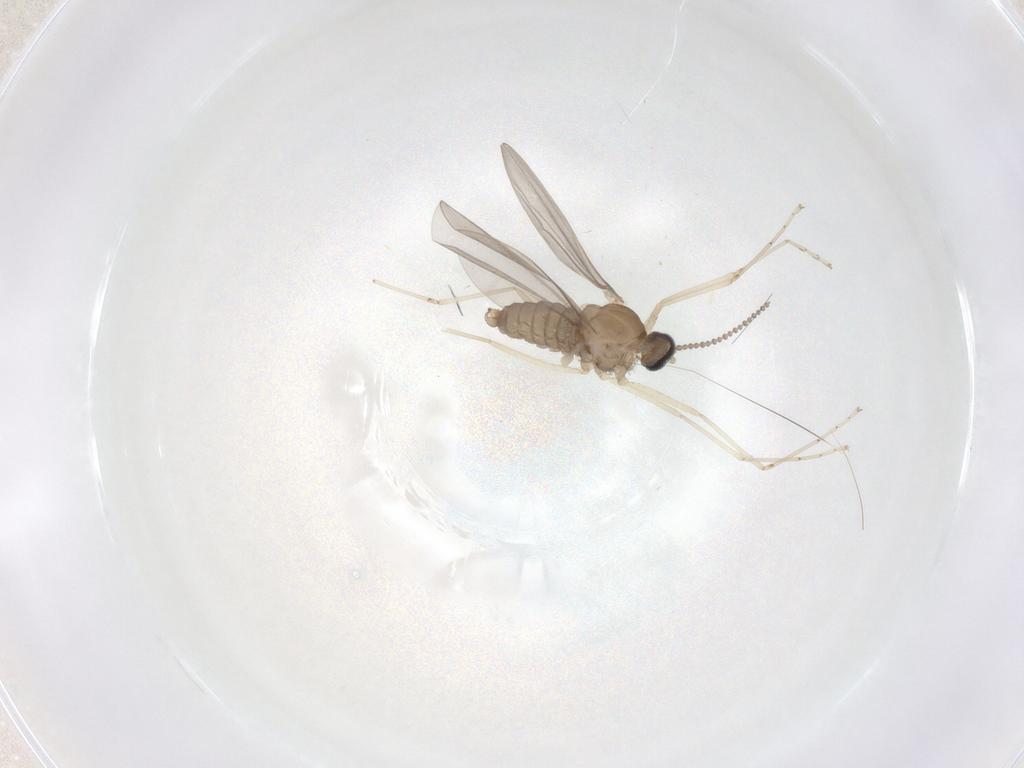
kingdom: Animalia
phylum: Arthropoda
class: Insecta
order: Diptera
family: Cecidomyiidae
